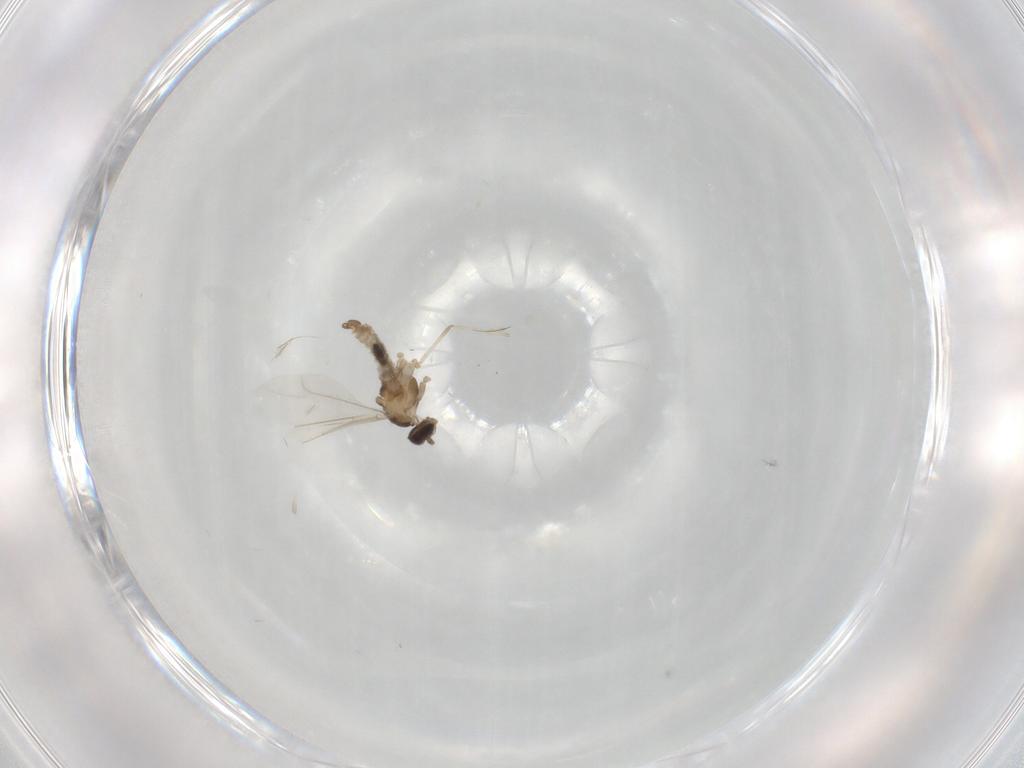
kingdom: Animalia
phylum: Arthropoda
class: Insecta
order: Diptera
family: Cecidomyiidae
